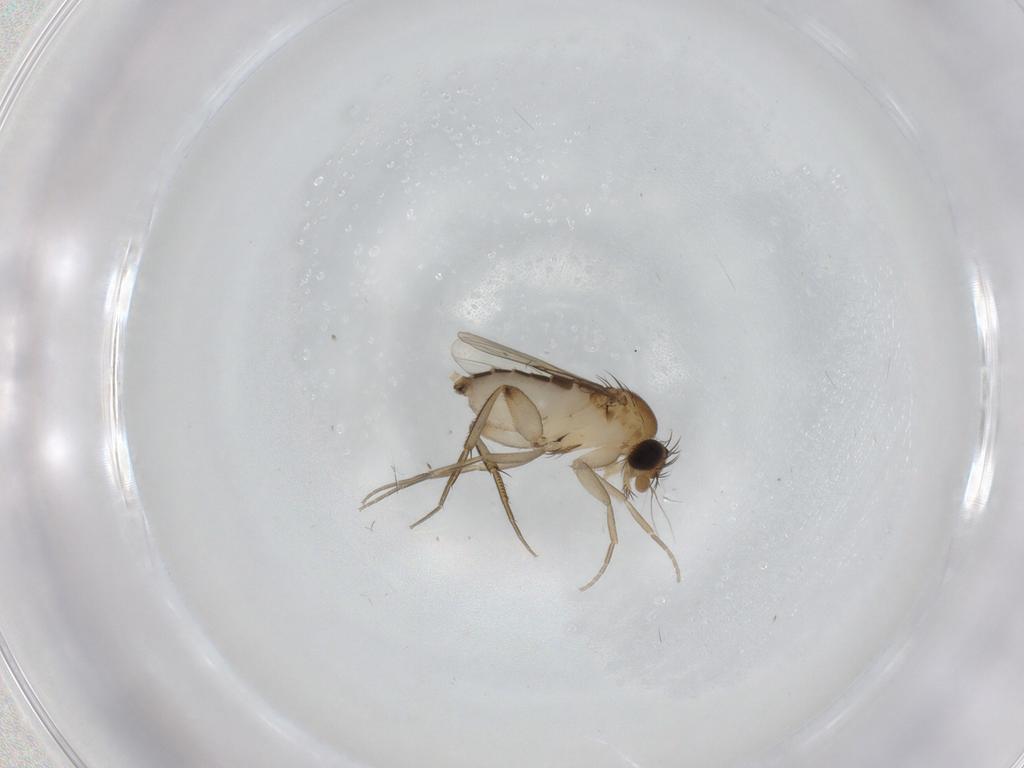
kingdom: Animalia
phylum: Arthropoda
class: Insecta
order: Diptera
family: Phoridae
